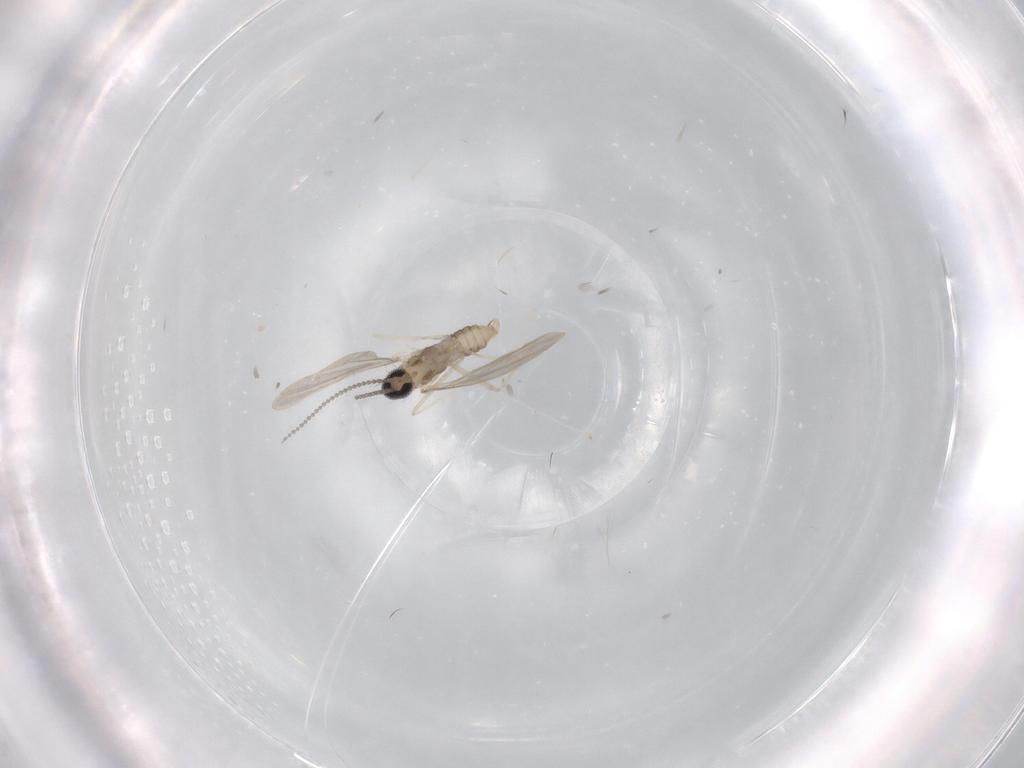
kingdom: Animalia
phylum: Arthropoda
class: Insecta
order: Diptera
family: Cecidomyiidae
